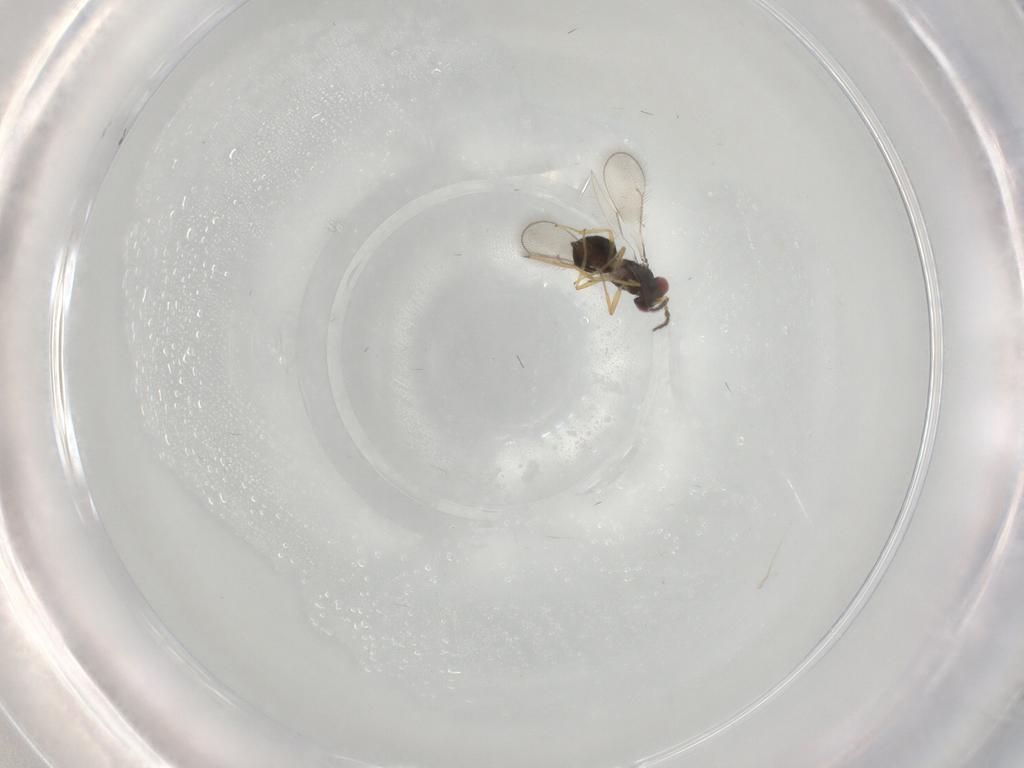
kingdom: Animalia
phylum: Arthropoda
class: Insecta
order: Hymenoptera
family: Eulophidae
